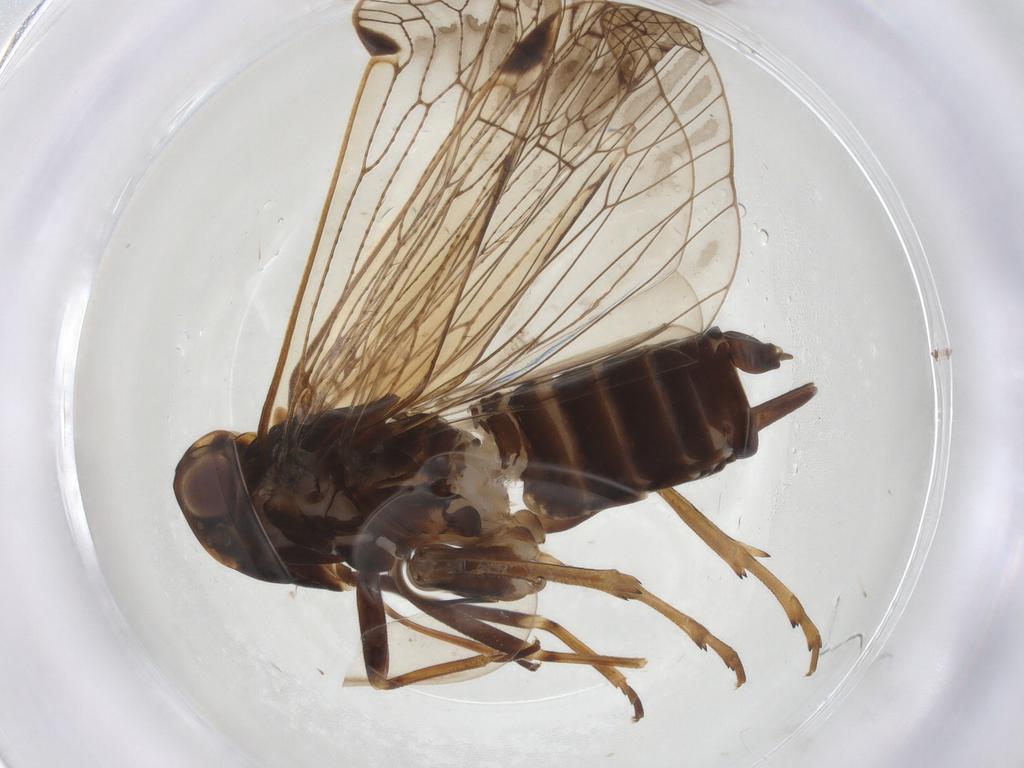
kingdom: Animalia
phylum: Arthropoda
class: Insecta
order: Hemiptera
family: Cixiidae
